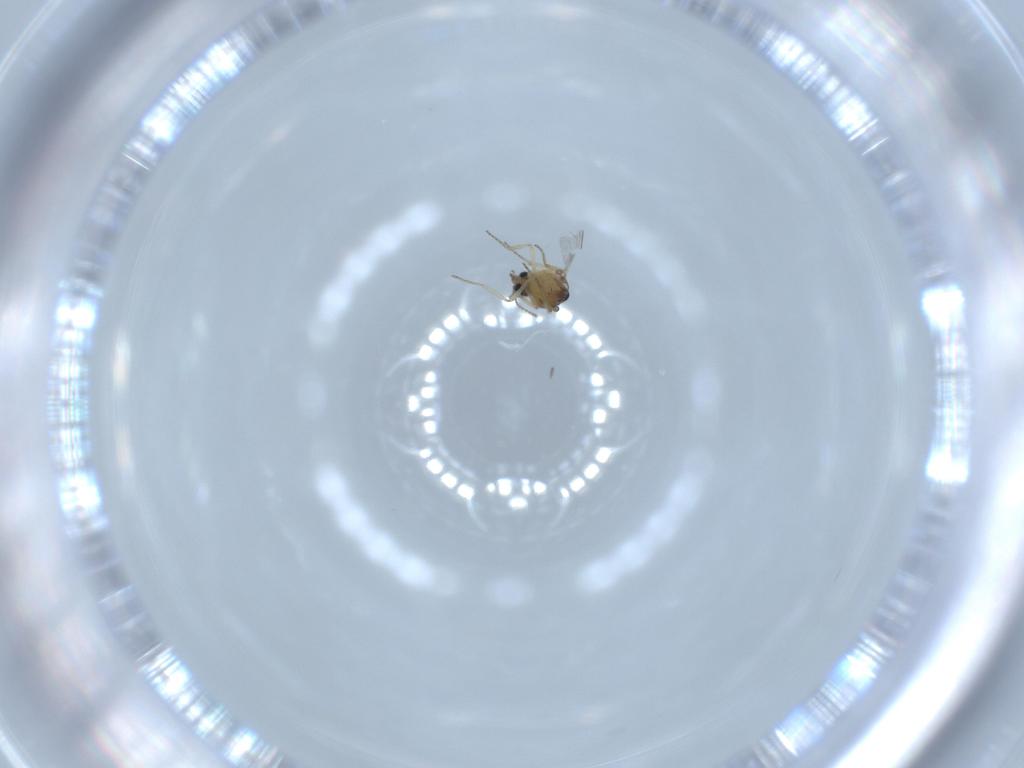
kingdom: Animalia
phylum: Arthropoda
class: Insecta
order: Diptera
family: Ceratopogonidae
